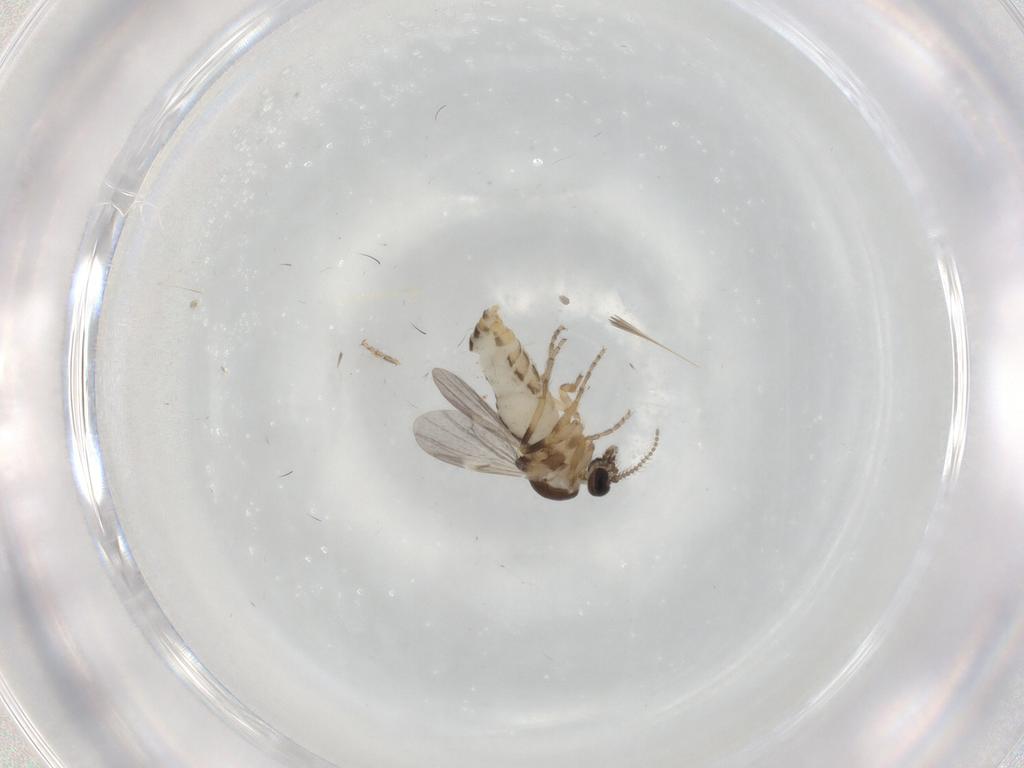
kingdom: Animalia
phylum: Arthropoda
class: Insecta
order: Diptera
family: Ceratopogonidae
